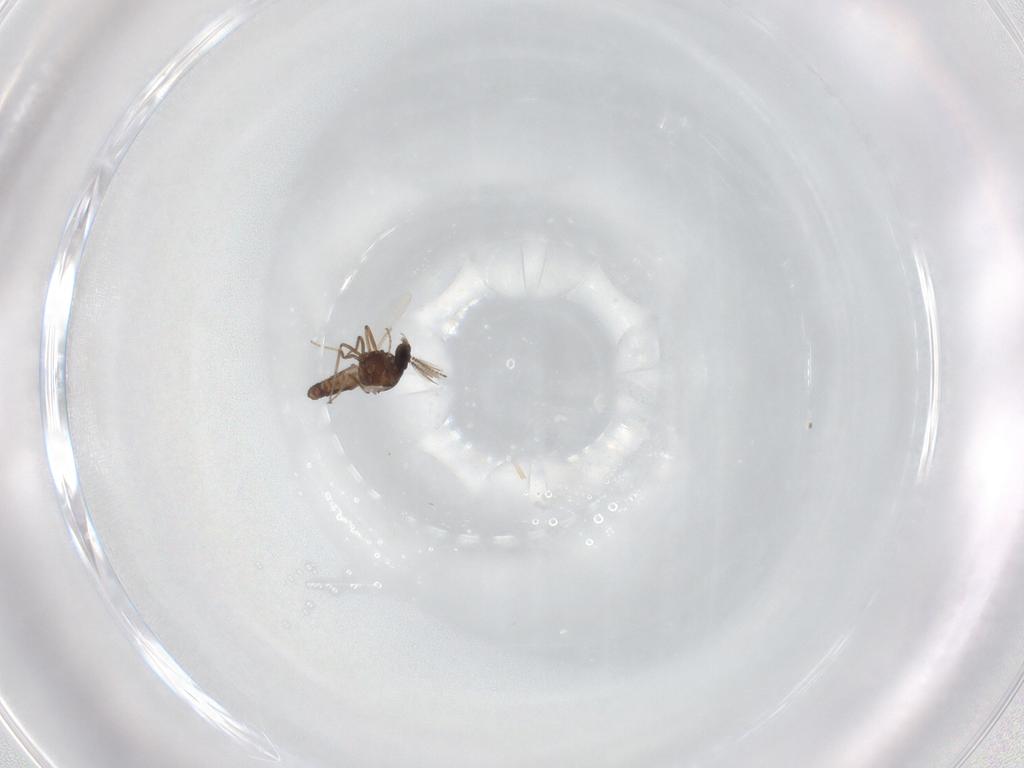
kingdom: Animalia
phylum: Arthropoda
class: Insecta
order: Diptera
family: Ceratopogonidae
